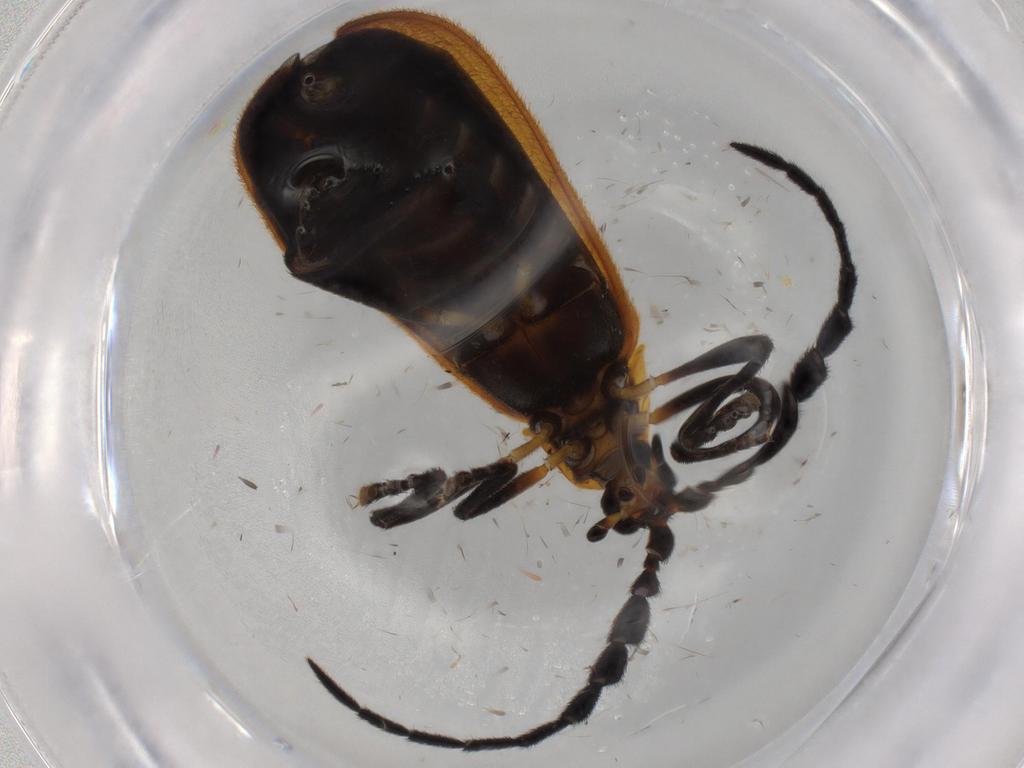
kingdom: Animalia
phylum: Arthropoda
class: Insecta
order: Coleoptera
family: Lycidae
